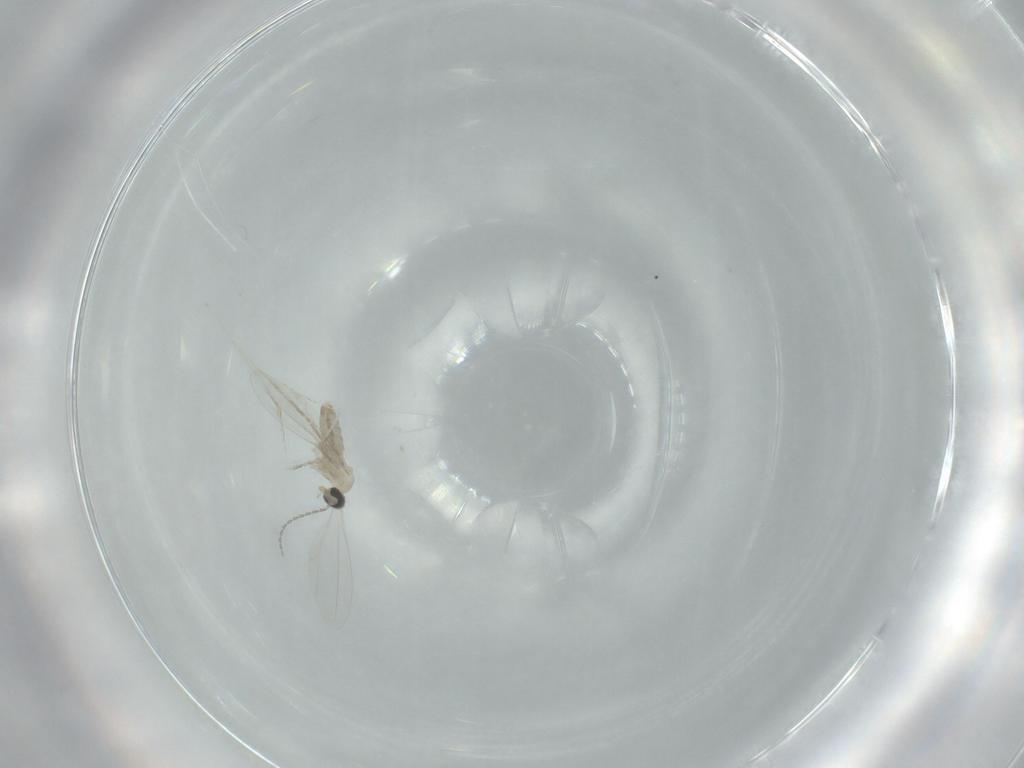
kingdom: Animalia
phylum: Arthropoda
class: Insecta
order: Diptera
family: Cecidomyiidae
